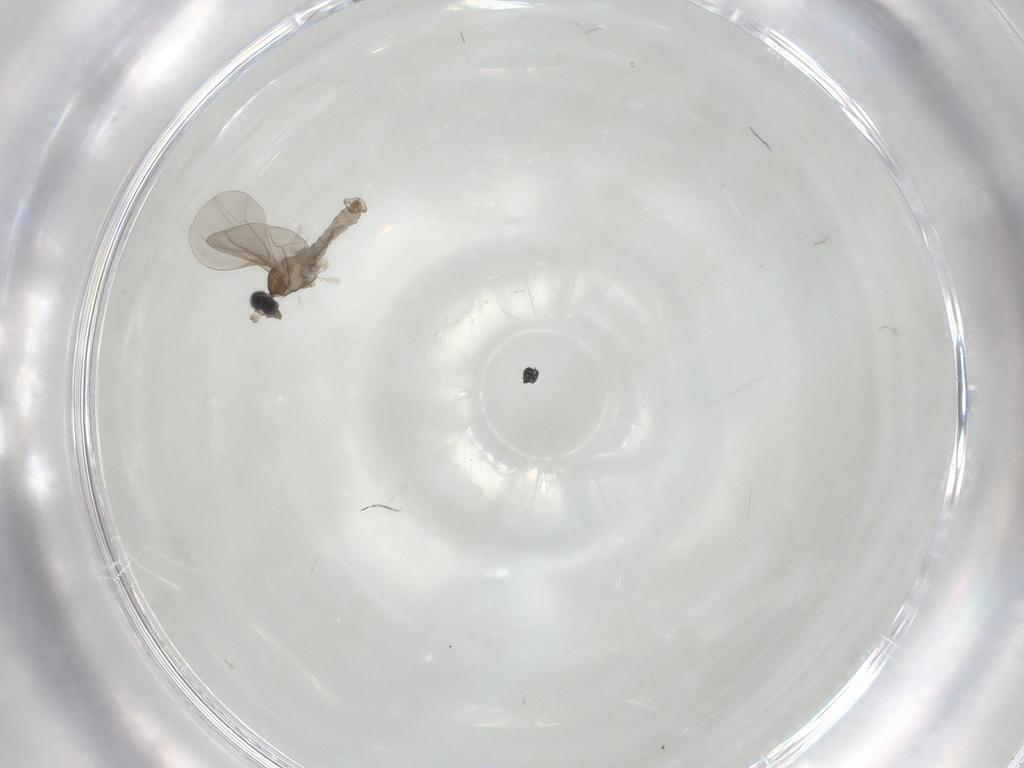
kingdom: Animalia
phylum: Arthropoda
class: Insecta
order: Diptera
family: Cecidomyiidae
